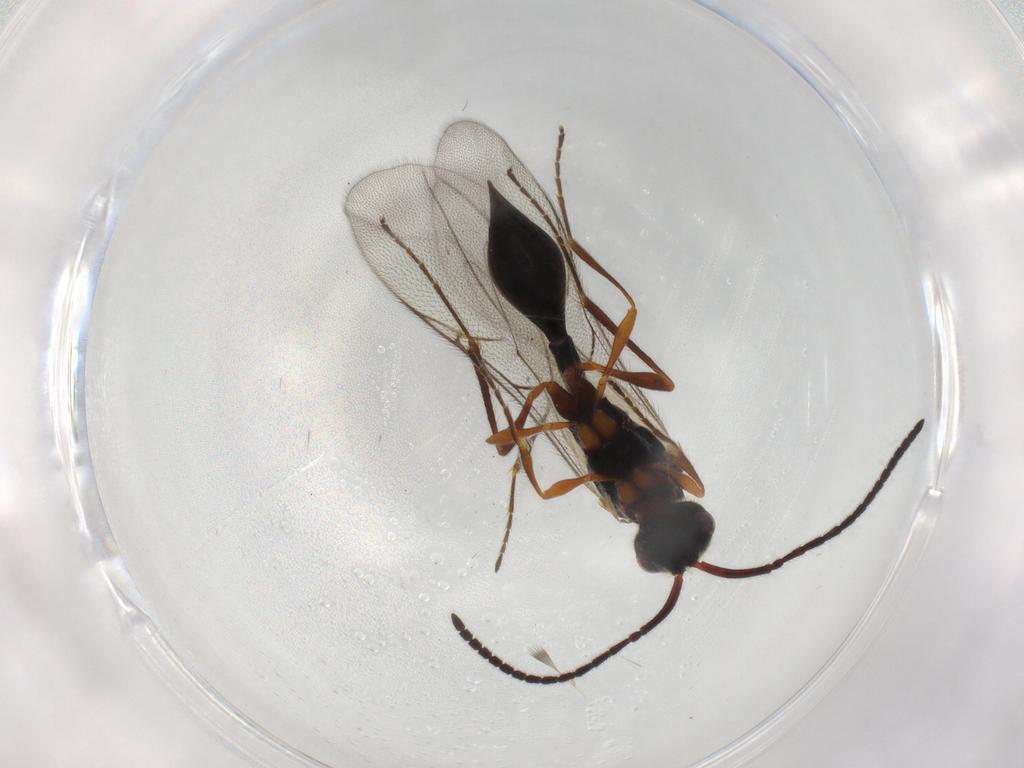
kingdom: Animalia
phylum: Arthropoda
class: Insecta
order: Hymenoptera
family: Diapriidae
